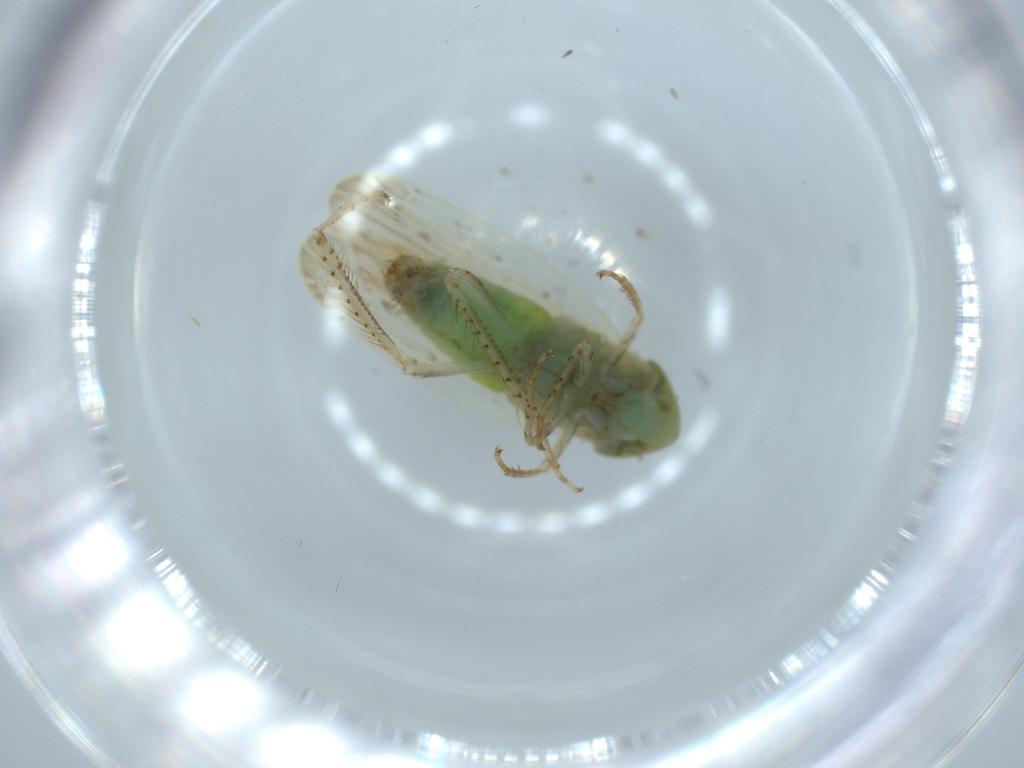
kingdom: Animalia
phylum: Arthropoda
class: Insecta
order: Hemiptera
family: Cicadellidae
